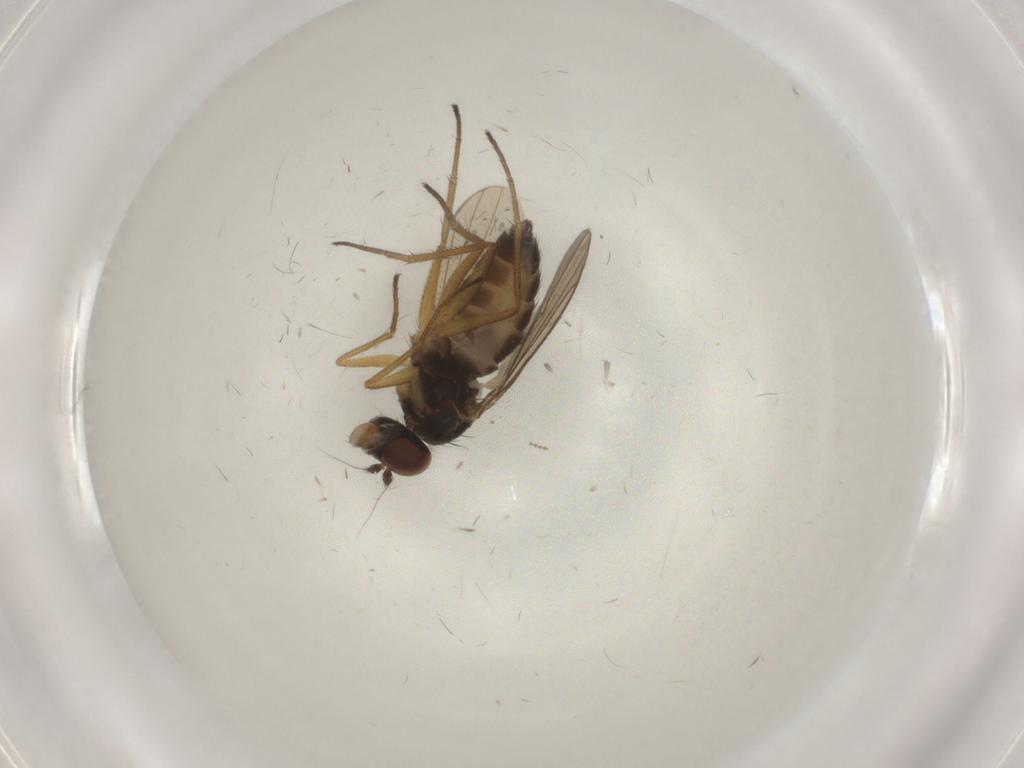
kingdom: Animalia
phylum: Arthropoda
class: Insecta
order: Diptera
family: Dolichopodidae
